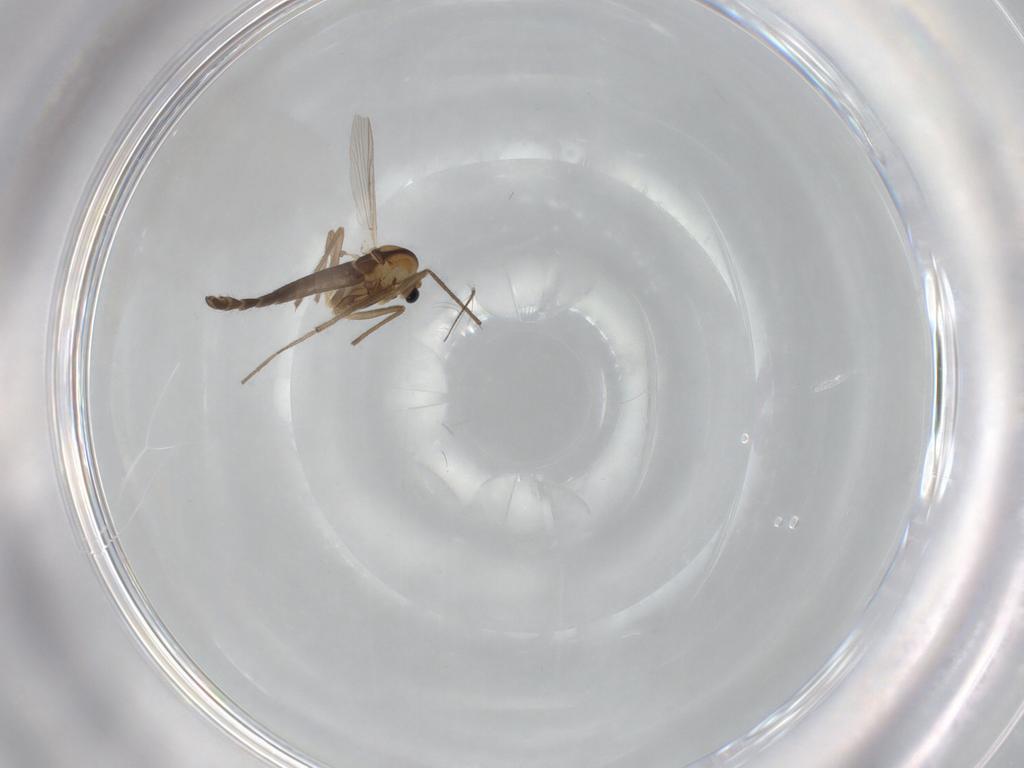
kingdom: Animalia
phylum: Arthropoda
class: Insecta
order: Diptera
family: Chironomidae
